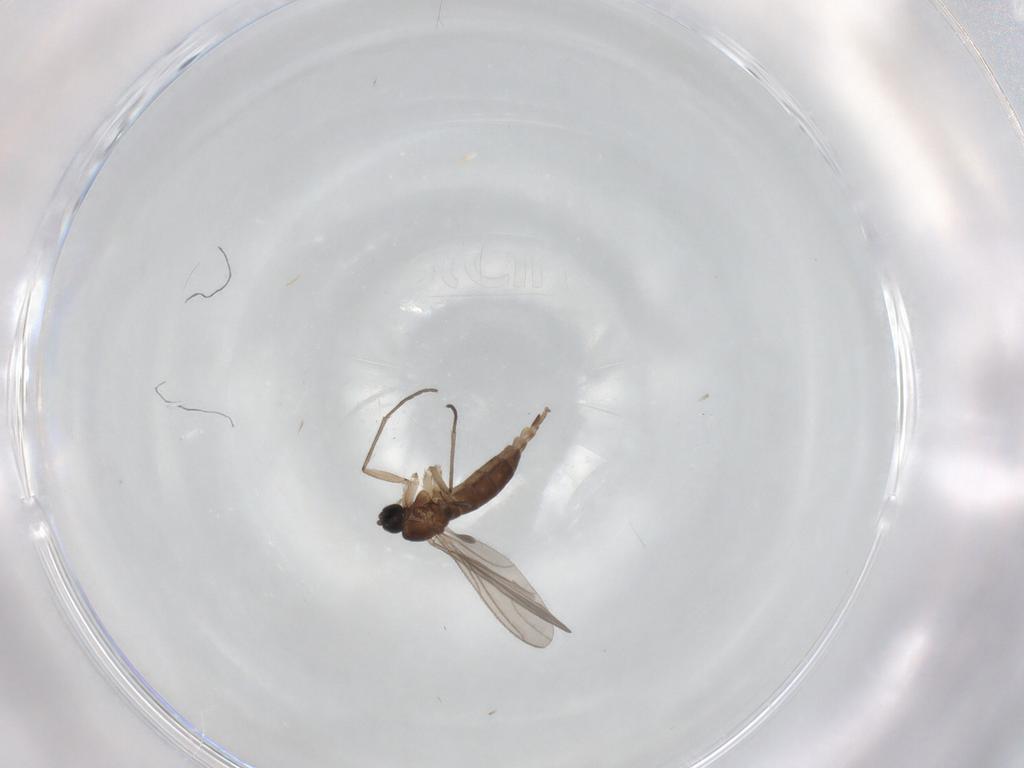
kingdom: Animalia
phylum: Arthropoda
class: Insecta
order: Diptera
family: Sciaridae
